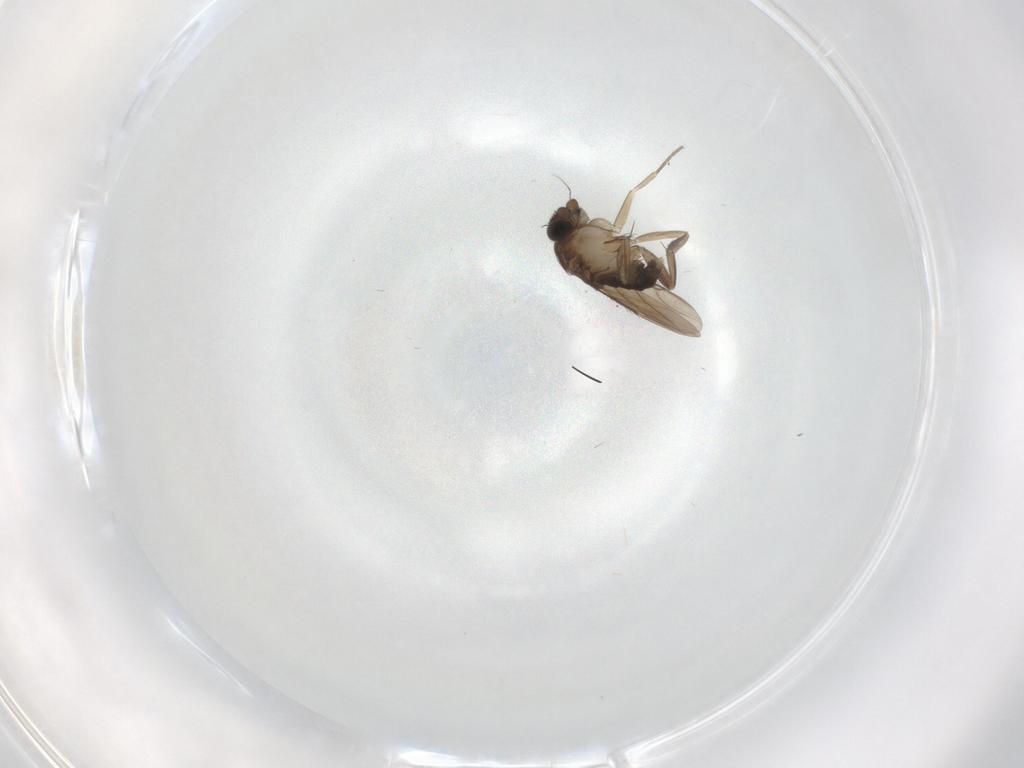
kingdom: Animalia
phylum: Arthropoda
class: Insecta
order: Diptera
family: Phoridae
